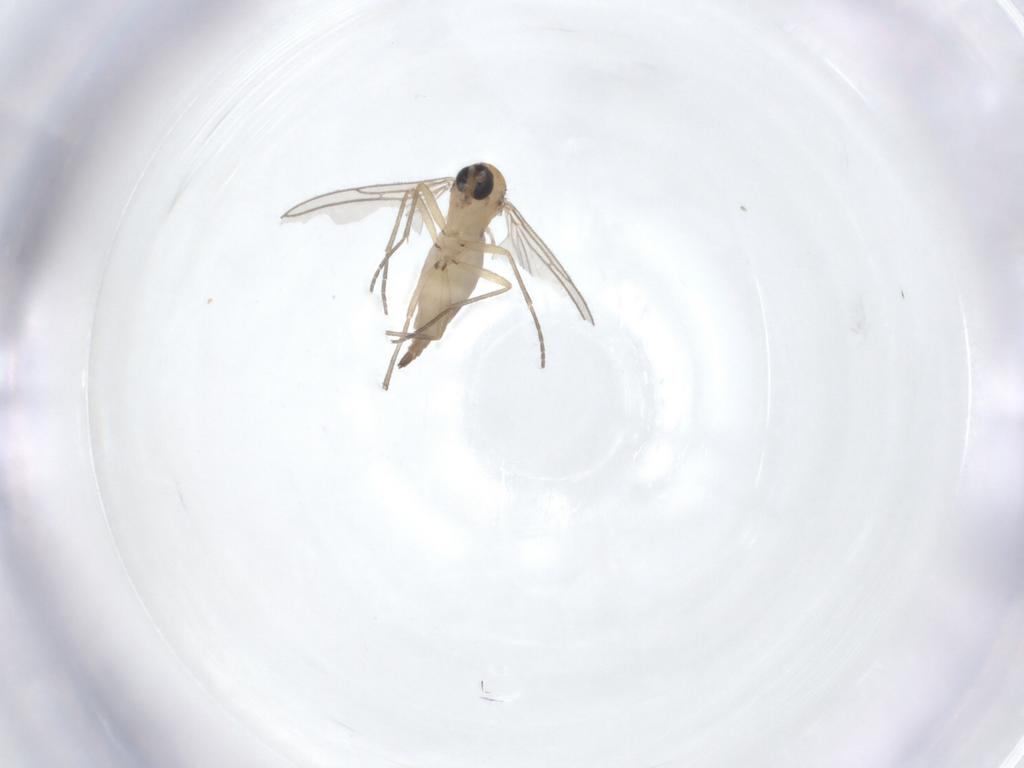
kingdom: Animalia
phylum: Arthropoda
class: Insecta
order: Diptera
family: Sciaridae
